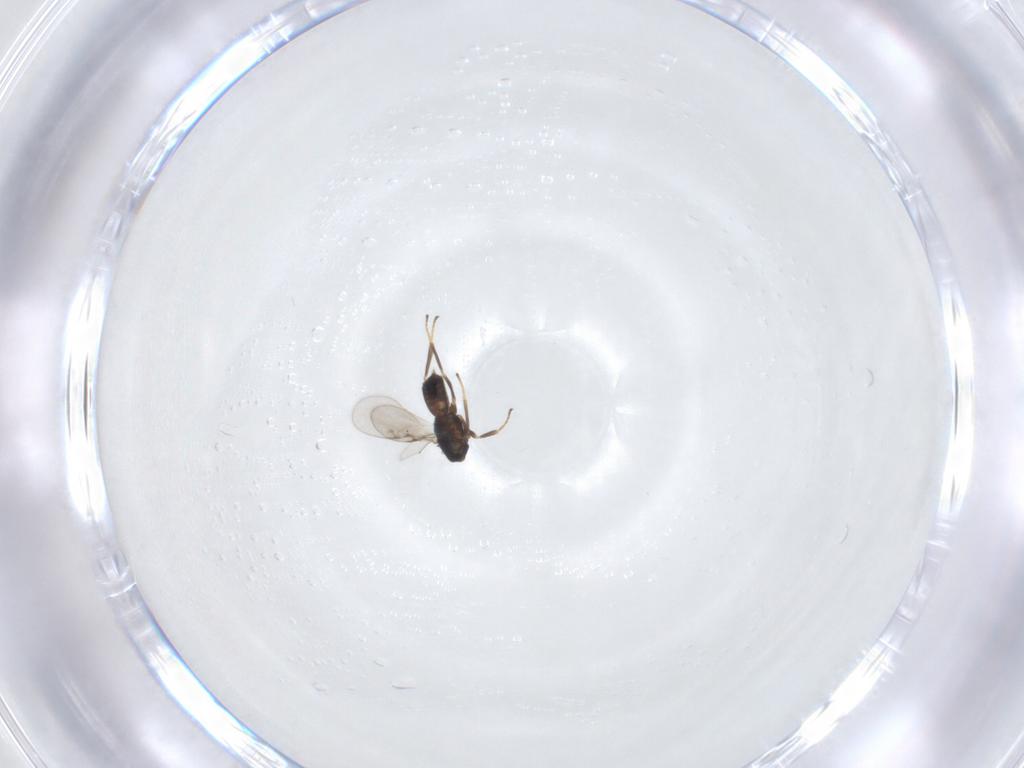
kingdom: Animalia
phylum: Arthropoda
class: Insecta
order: Hymenoptera
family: Encyrtidae
